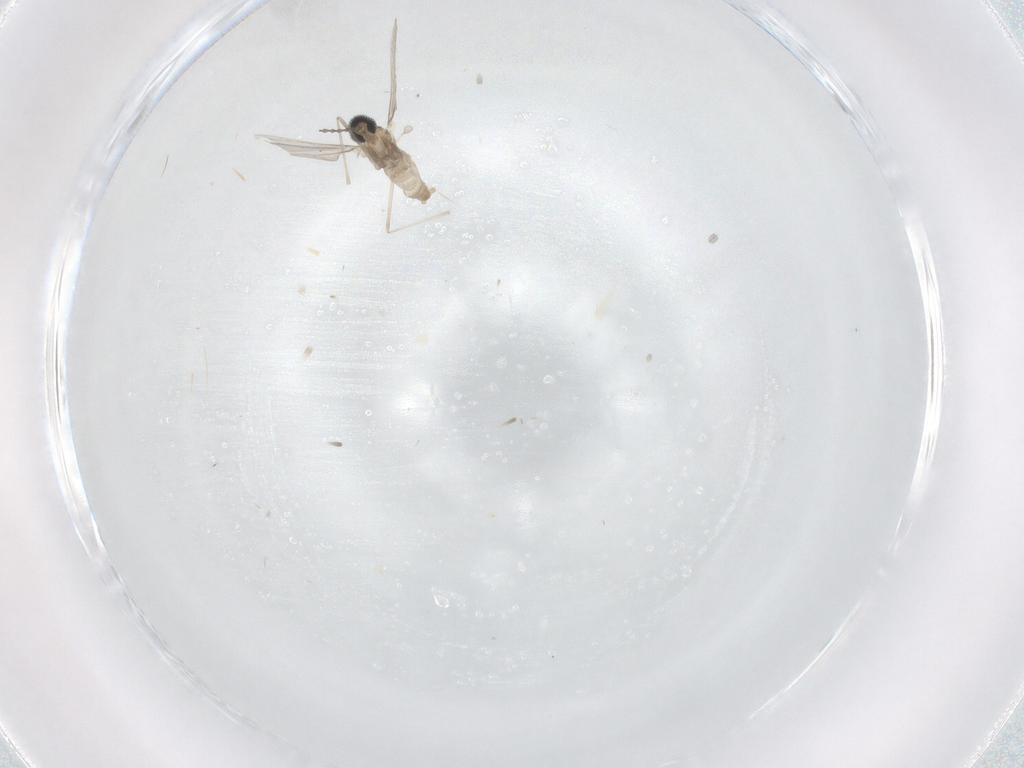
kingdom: Animalia
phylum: Arthropoda
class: Insecta
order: Diptera
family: Cecidomyiidae
